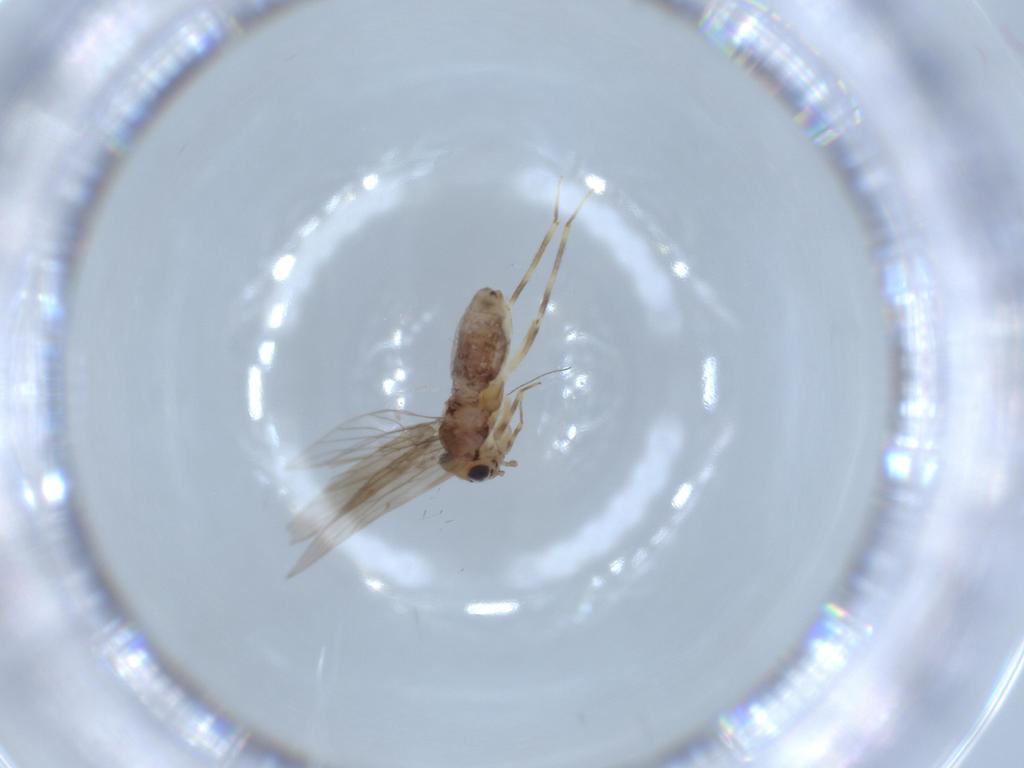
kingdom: Animalia
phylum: Arthropoda
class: Insecta
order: Psocodea
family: Lepidopsocidae
